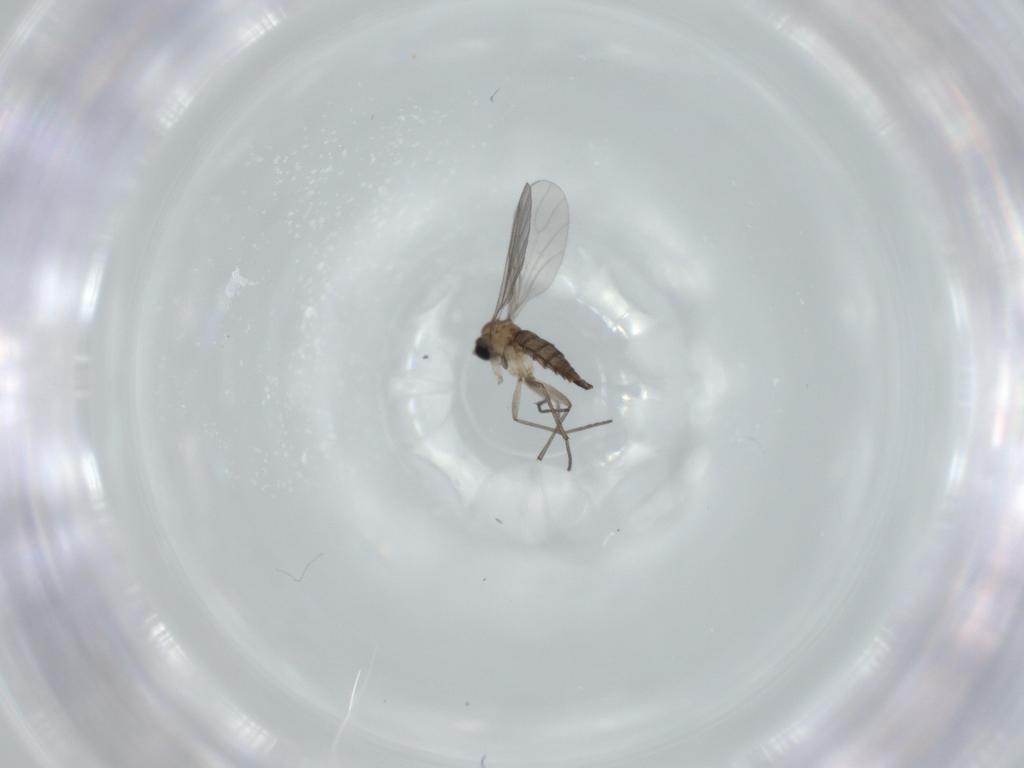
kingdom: Animalia
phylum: Arthropoda
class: Insecta
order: Diptera
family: Sciaridae
